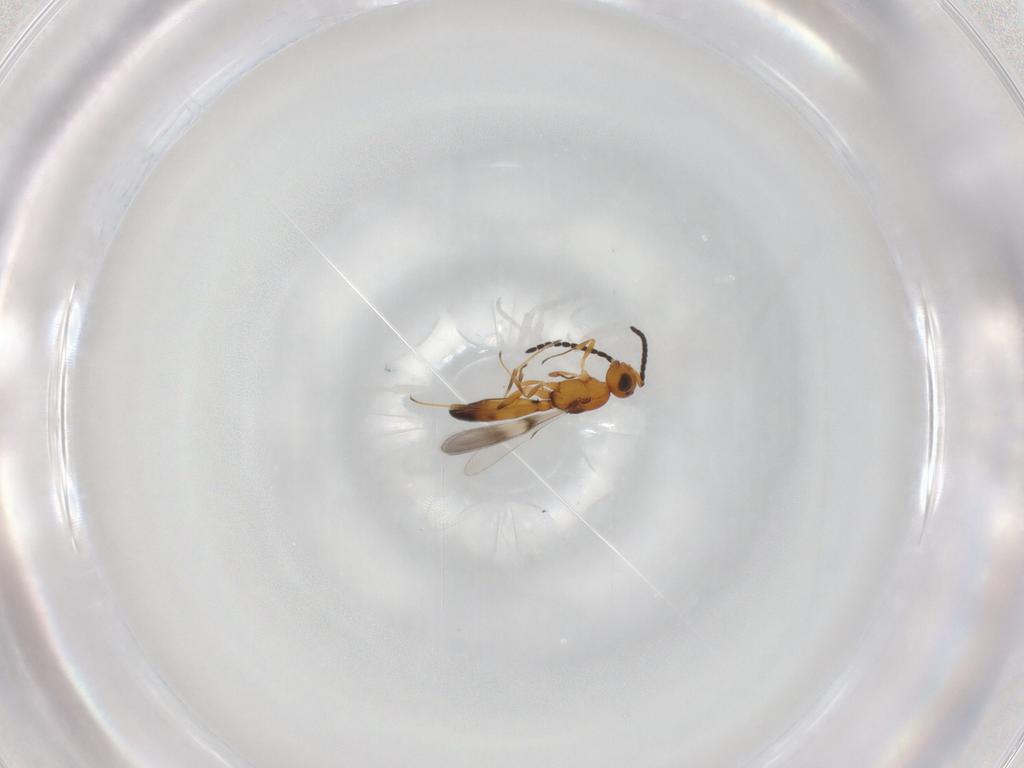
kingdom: Animalia
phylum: Arthropoda
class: Insecta
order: Hymenoptera
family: Scelionidae
